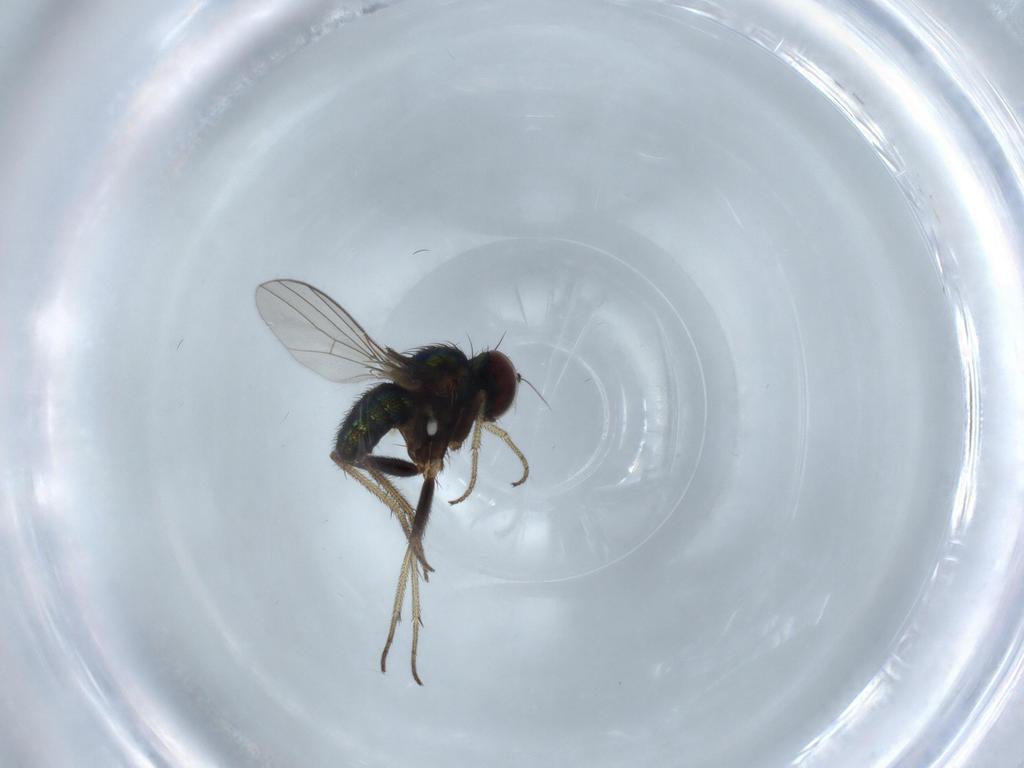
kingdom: Animalia
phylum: Arthropoda
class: Insecta
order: Diptera
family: Dolichopodidae
